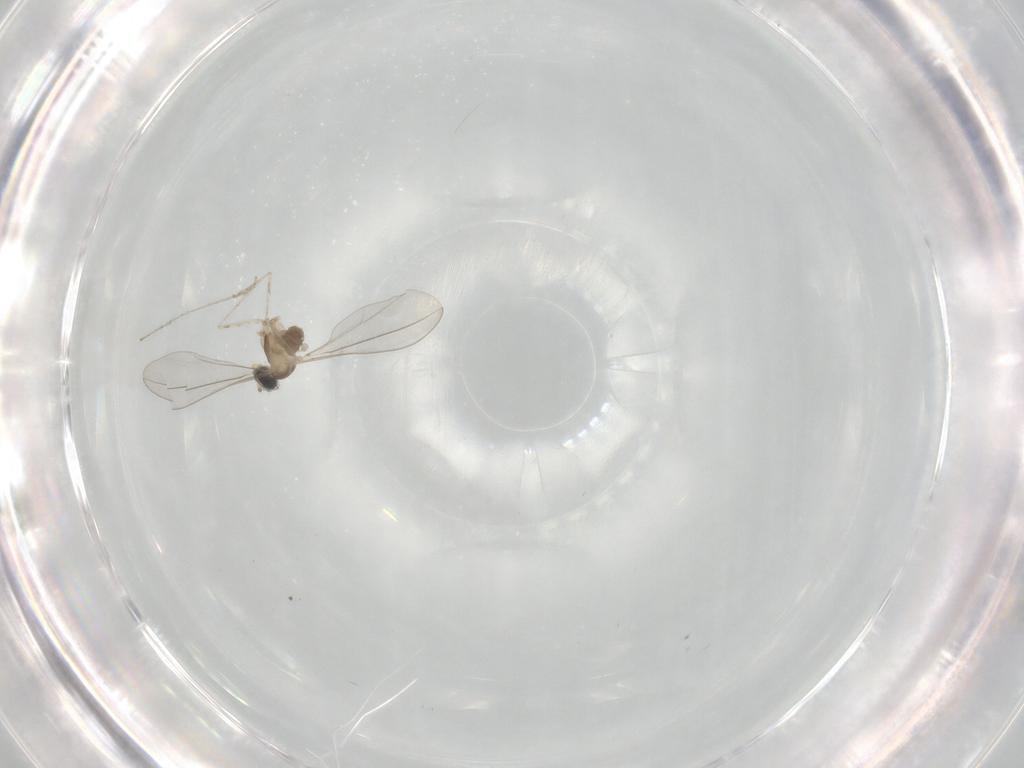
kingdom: Animalia
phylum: Arthropoda
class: Insecta
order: Diptera
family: Cecidomyiidae
